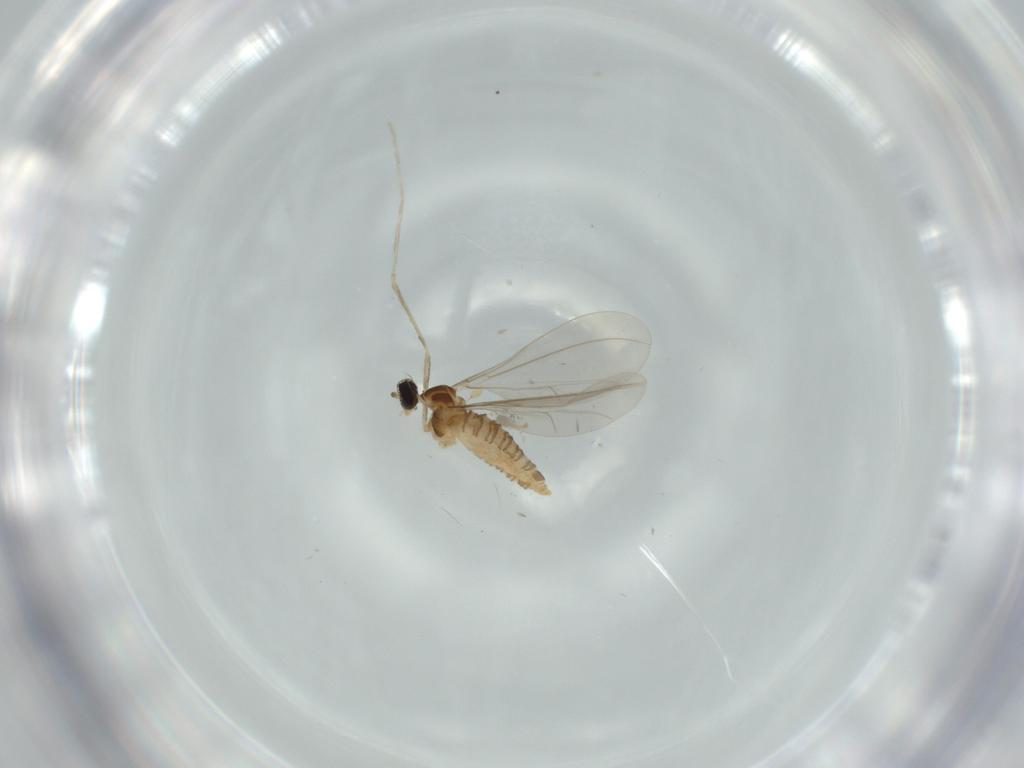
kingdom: Animalia
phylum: Arthropoda
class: Insecta
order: Diptera
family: Cecidomyiidae
